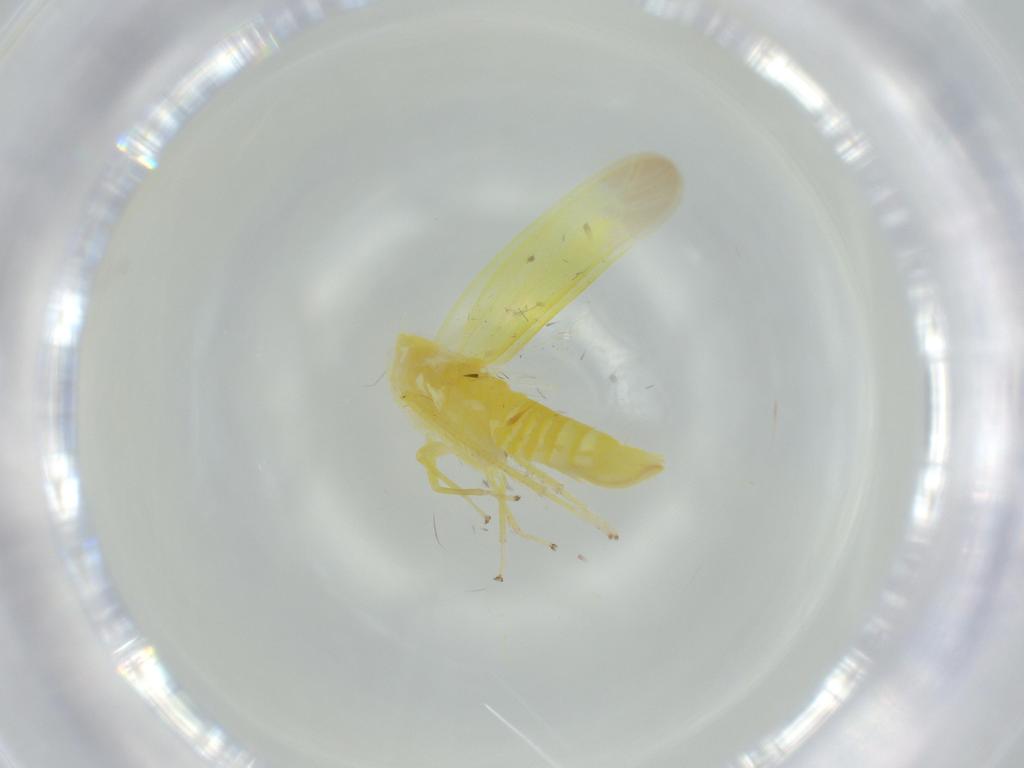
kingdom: Animalia
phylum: Arthropoda
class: Insecta
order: Hemiptera
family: Cicadellidae
